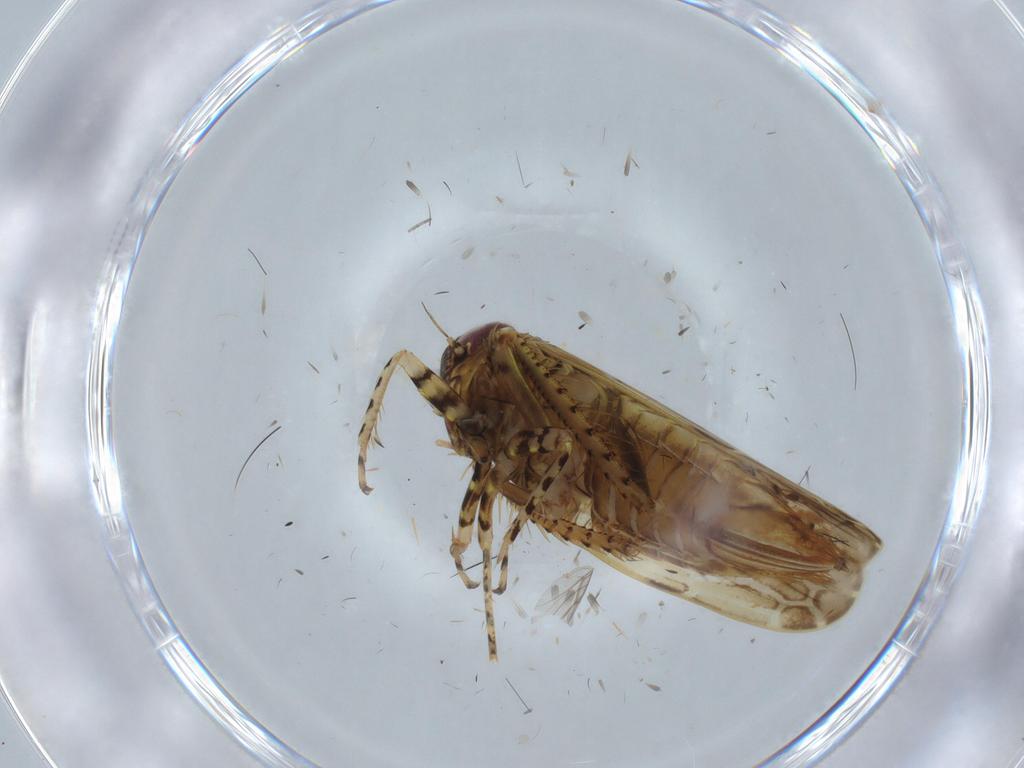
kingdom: Animalia
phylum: Arthropoda
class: Insecta
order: Hemiptera
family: Cicadellidae
